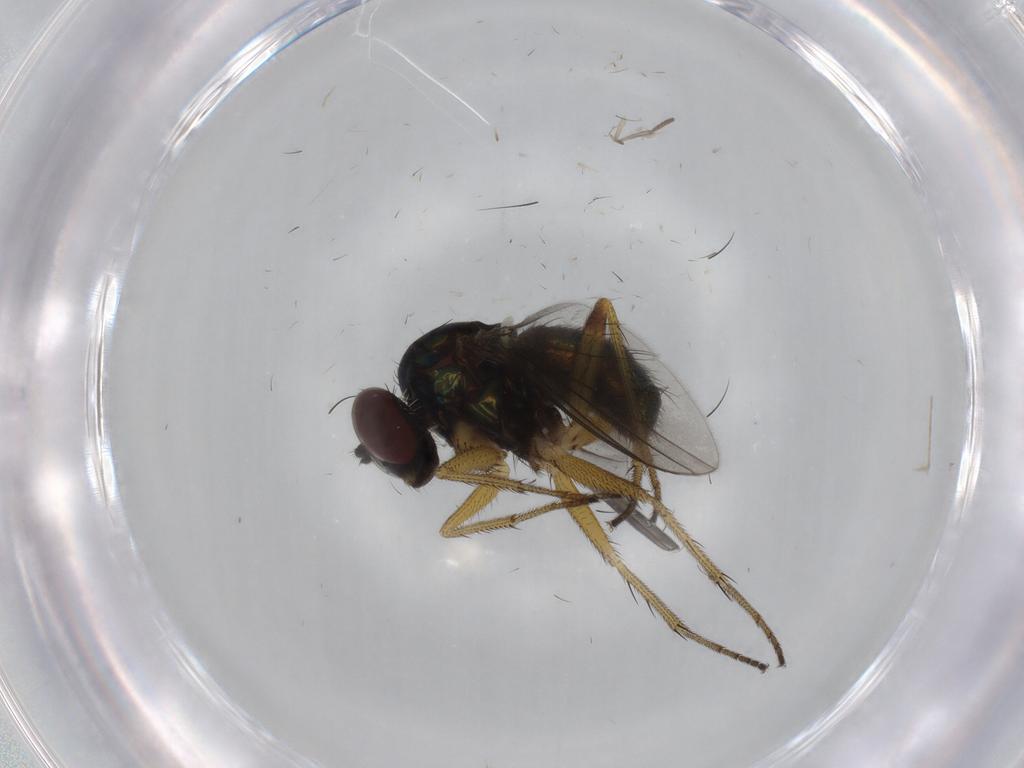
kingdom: Animalia
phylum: Arthropoda
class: Insecta
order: Diptera
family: Dolichopodidae
